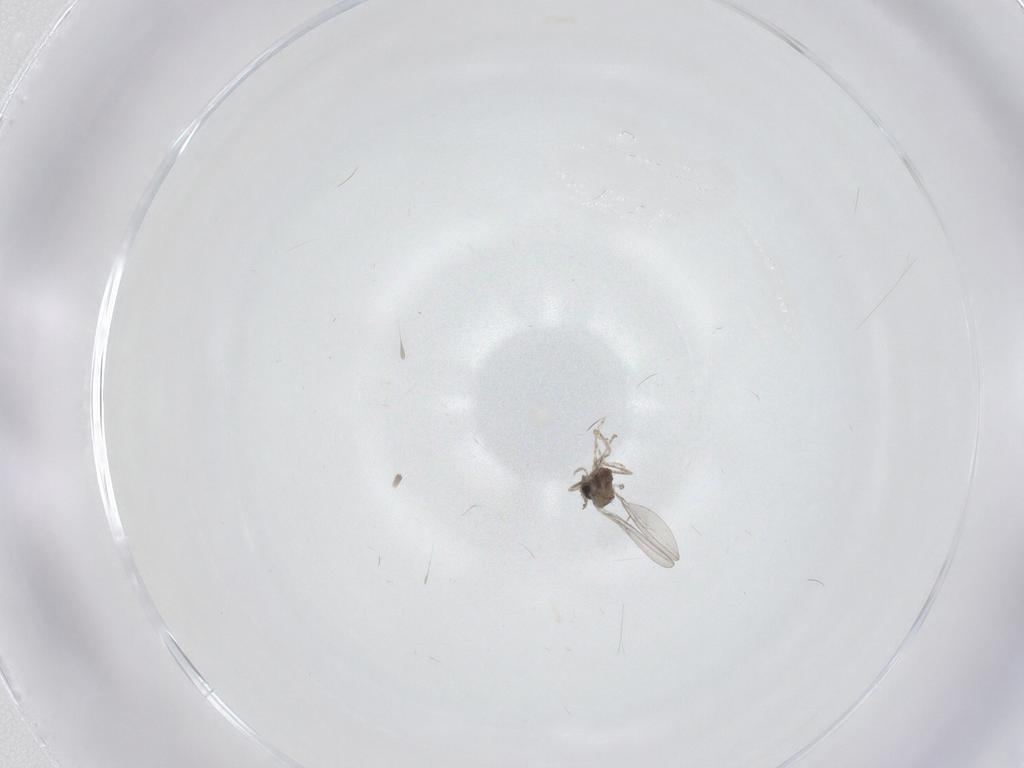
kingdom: Animalia
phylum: Arthropoda
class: Insecta
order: Diptera
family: Cecidomyiidae
